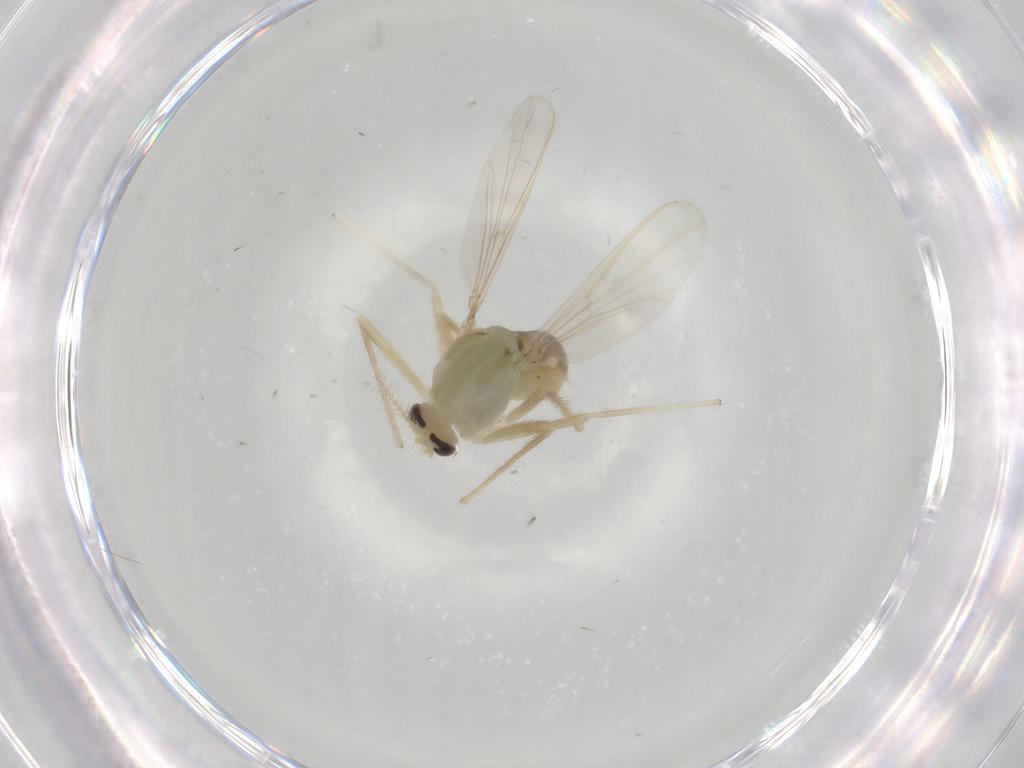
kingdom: Animalia
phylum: Arthropoda
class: Insecta
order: Diptera
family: Chironomidae
